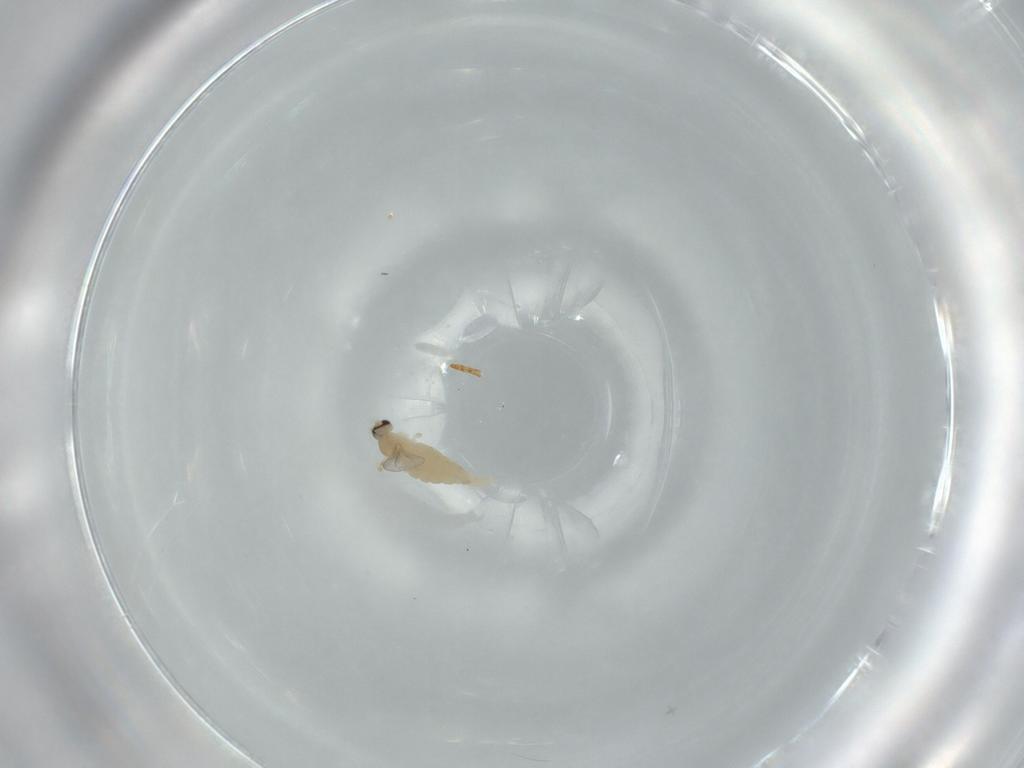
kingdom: Animalia
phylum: Arthropoda
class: Insecta
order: Diptera
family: Cecidomyiidae
